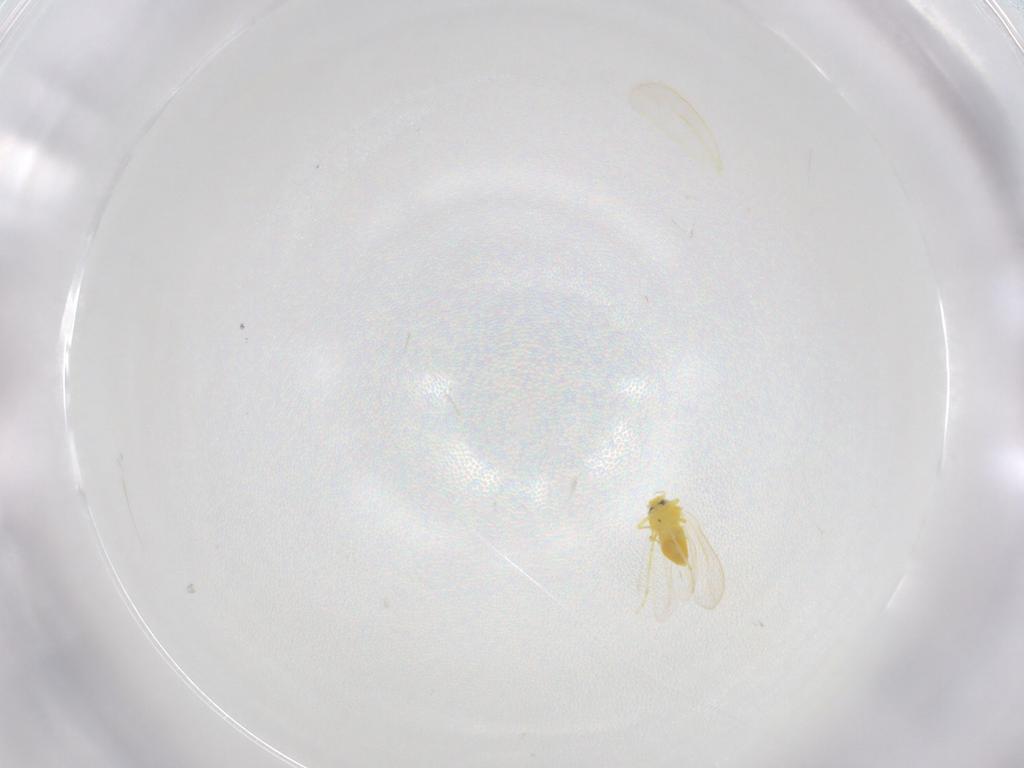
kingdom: Animalia
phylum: Arthropoda
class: Insecta
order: Hemiptera
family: Aleyrodidae
